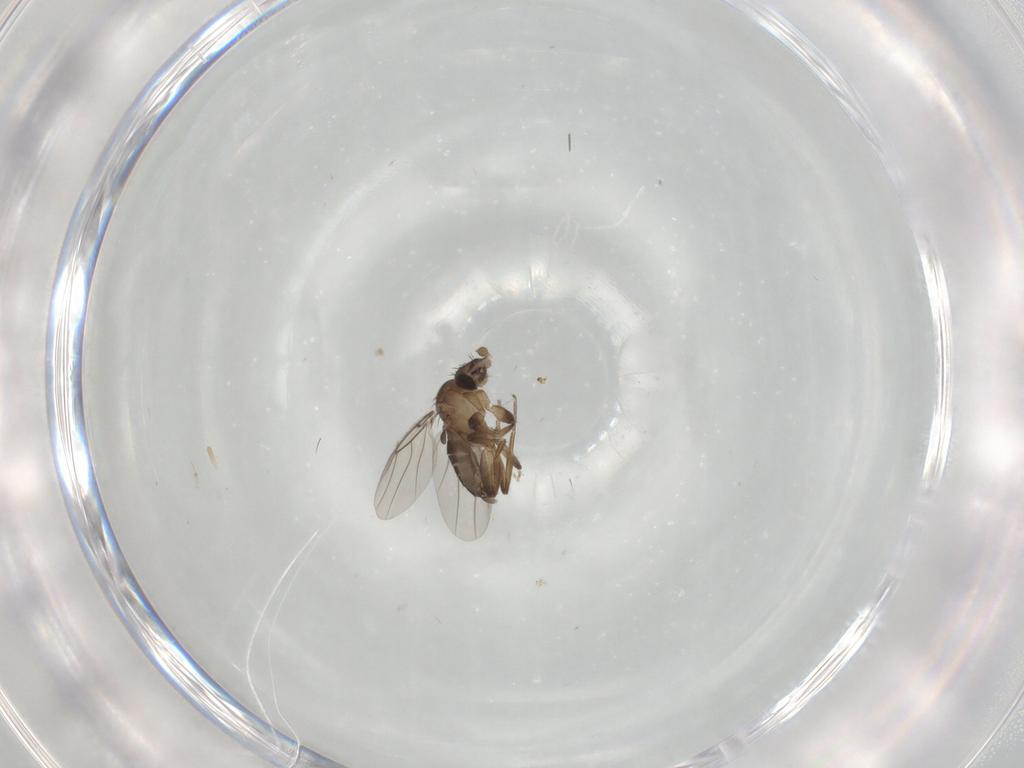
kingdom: Animalia
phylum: Arthropoda
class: Insecta
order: Diptera
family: Phoridae
